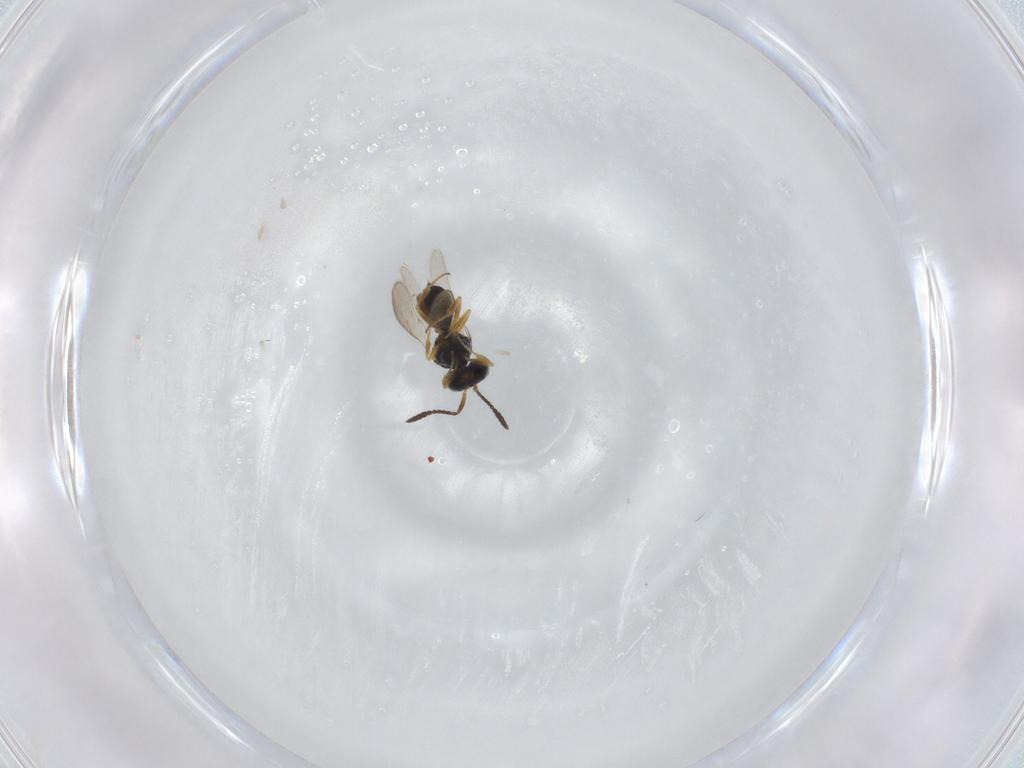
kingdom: Animalia
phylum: Arthropoda
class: Insecta
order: Hymenoptera
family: Scelionidae
